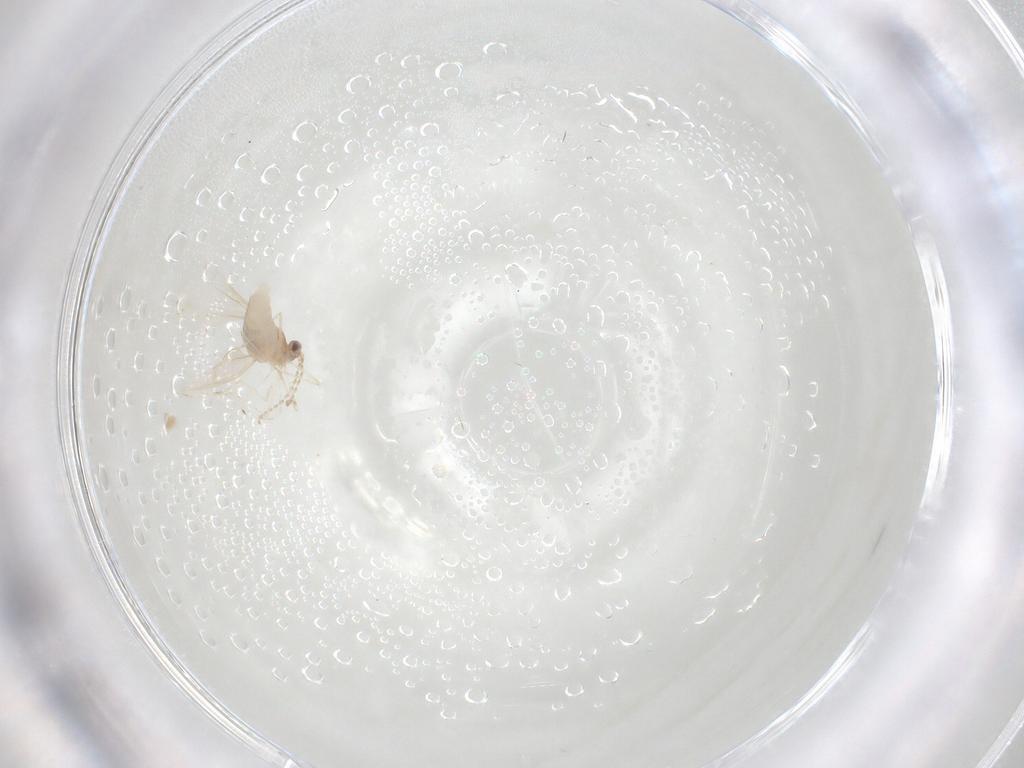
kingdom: Animalia
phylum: Arthropoda
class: Insecta
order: Diptera
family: Ceratopogonidae
